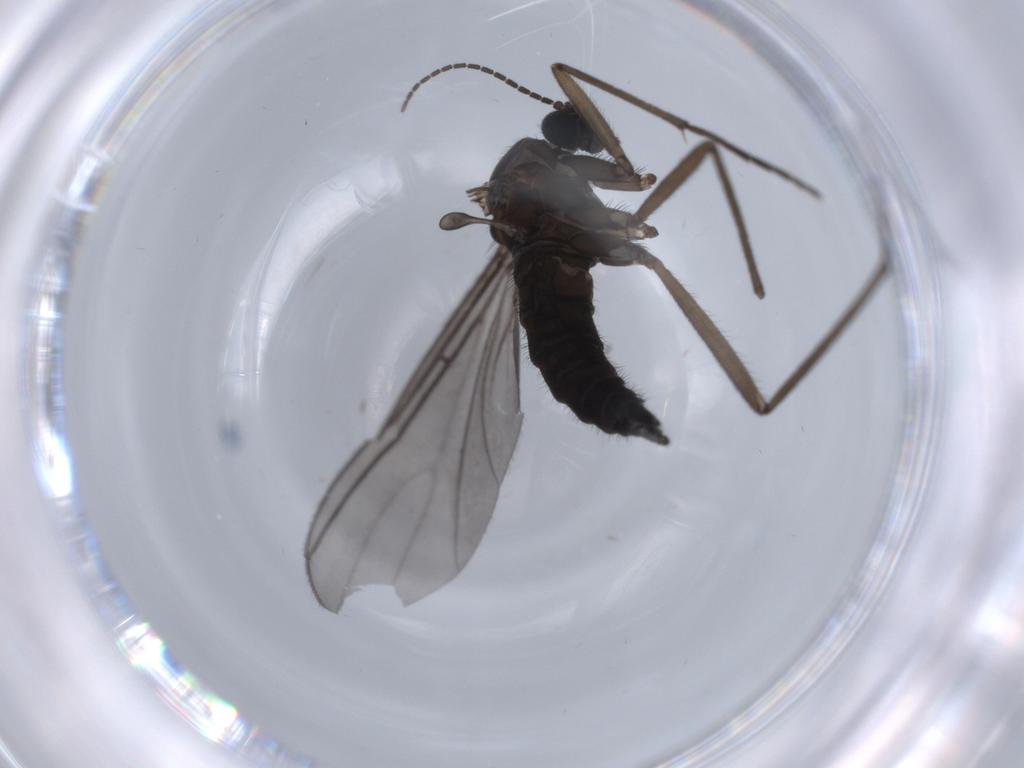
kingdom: Animalia
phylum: Arthropoda
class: Insecta
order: Diptera
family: Sciaridae
